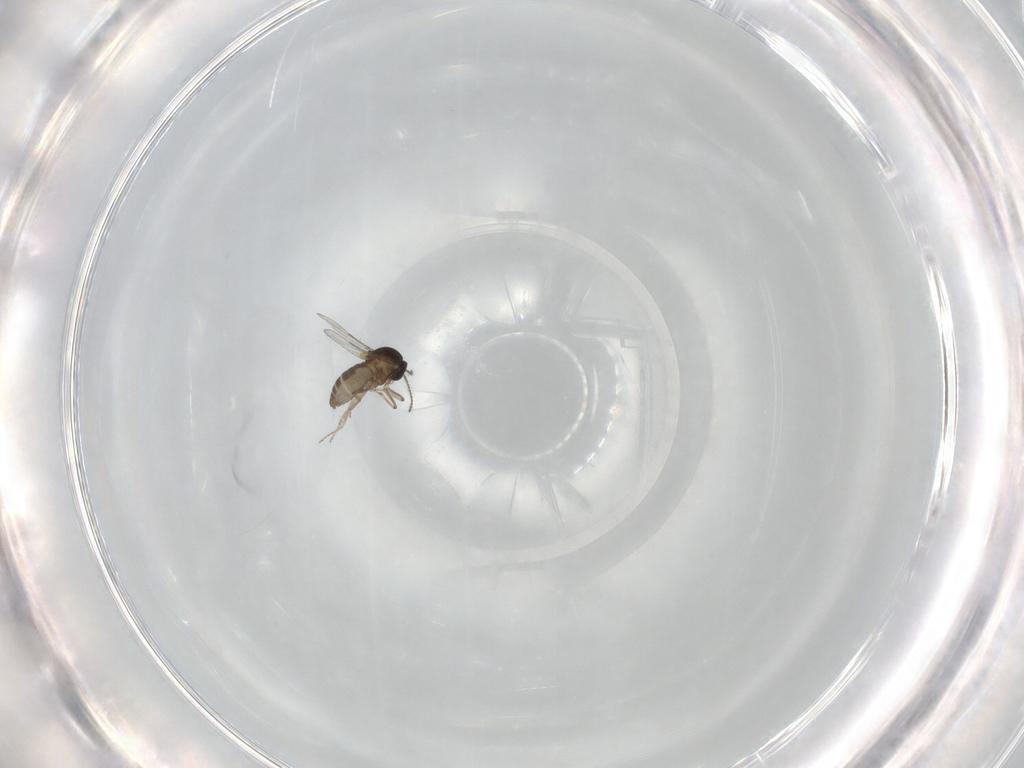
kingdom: Animalia
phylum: Arthropoda
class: Insecta
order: Diptera
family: Ceratopogonidae
